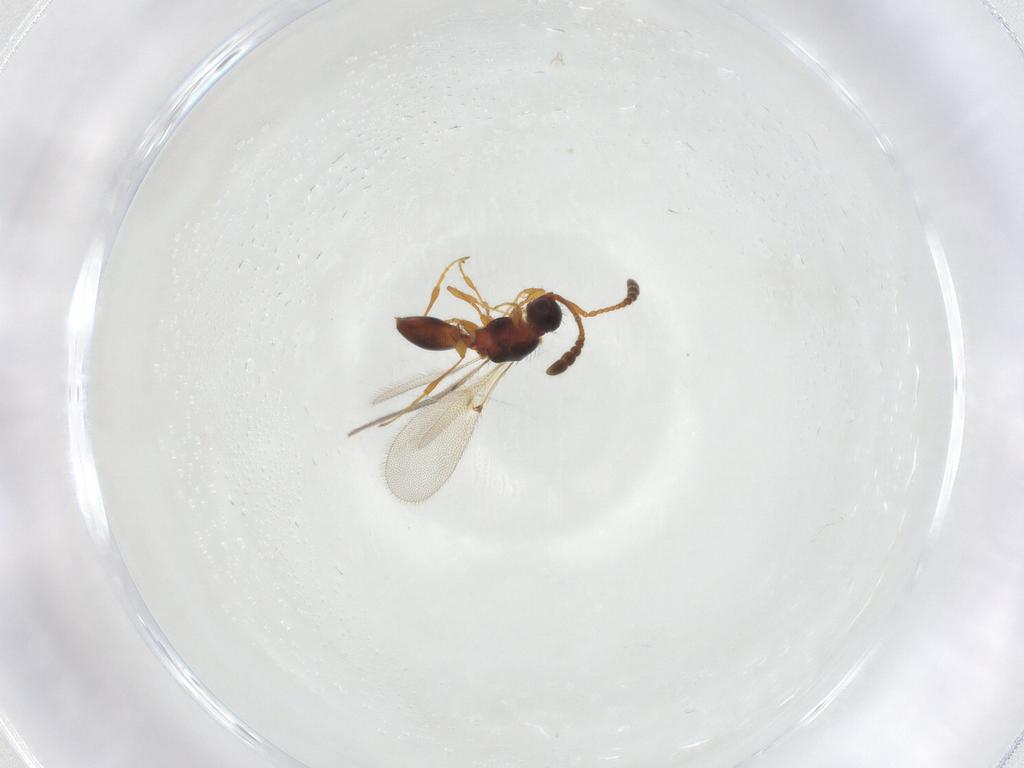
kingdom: Animalia
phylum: Arthropoda
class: Insecta
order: Hymenoptera
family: Diapriidae
